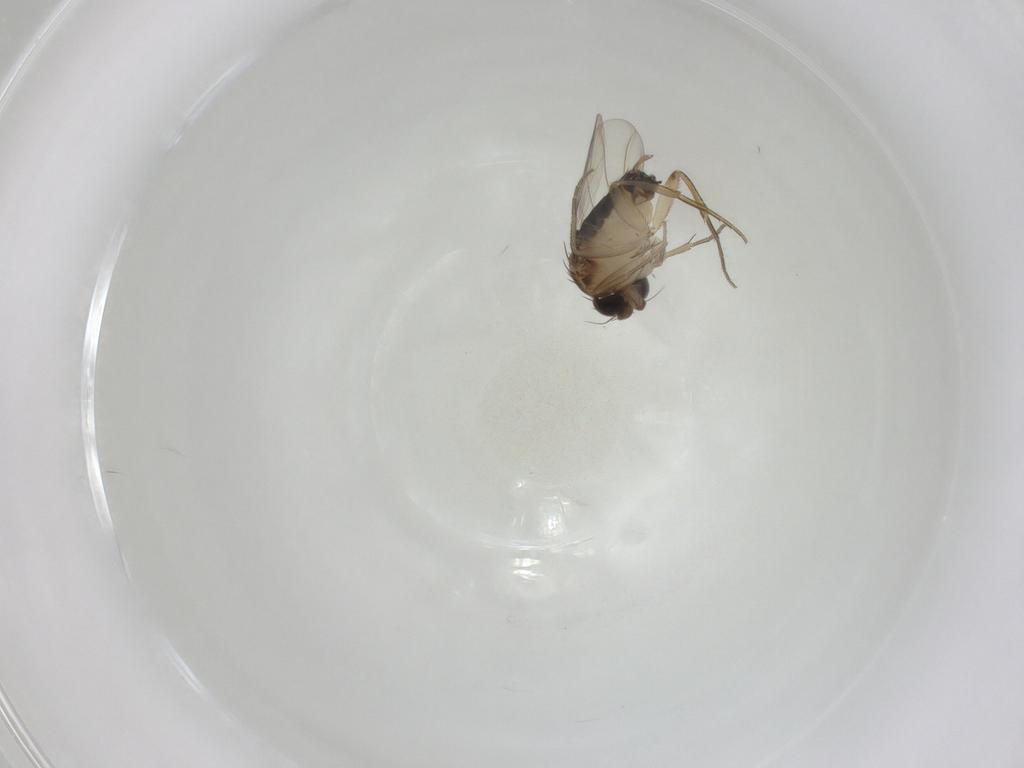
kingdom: Animalia
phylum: Arthropoda
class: Insecta
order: Diptera
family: Phoridae
